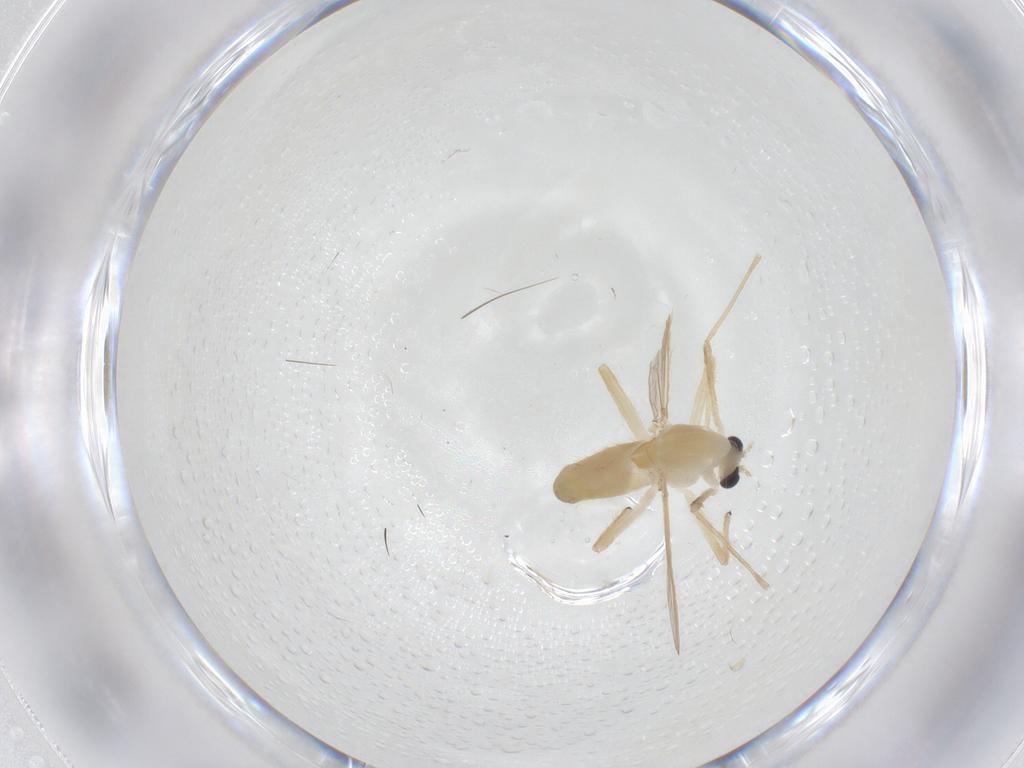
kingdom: Animalia
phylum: Arthropoda
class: Insecta
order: Diptera
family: Chironomidae
